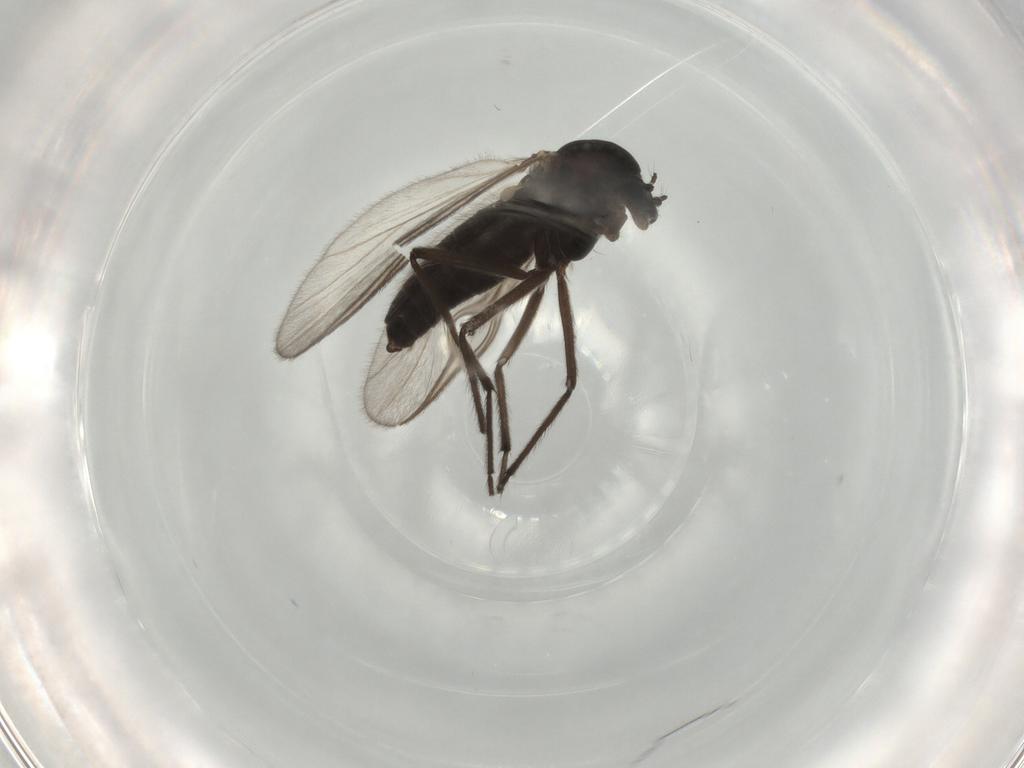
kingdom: Animalia
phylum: Arthropoda
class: Insecta
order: Diptera
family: Chironomidae
